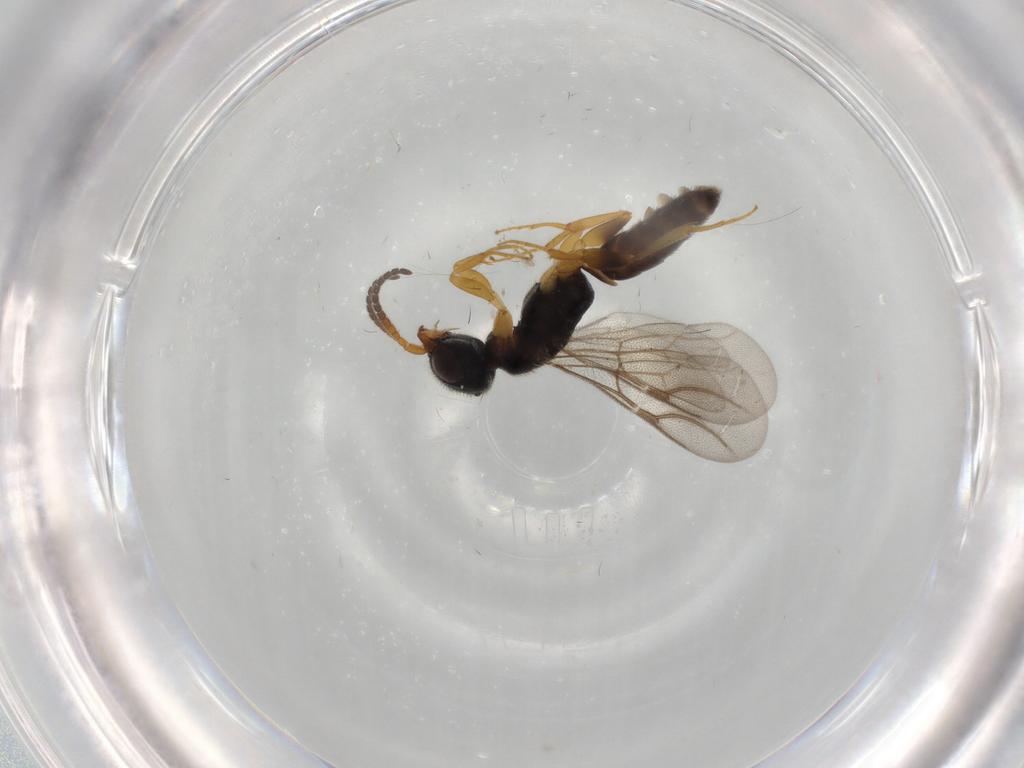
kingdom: Animalia
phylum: Arthropoda
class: Insecta
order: Hymenoptera
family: Bethylidae
